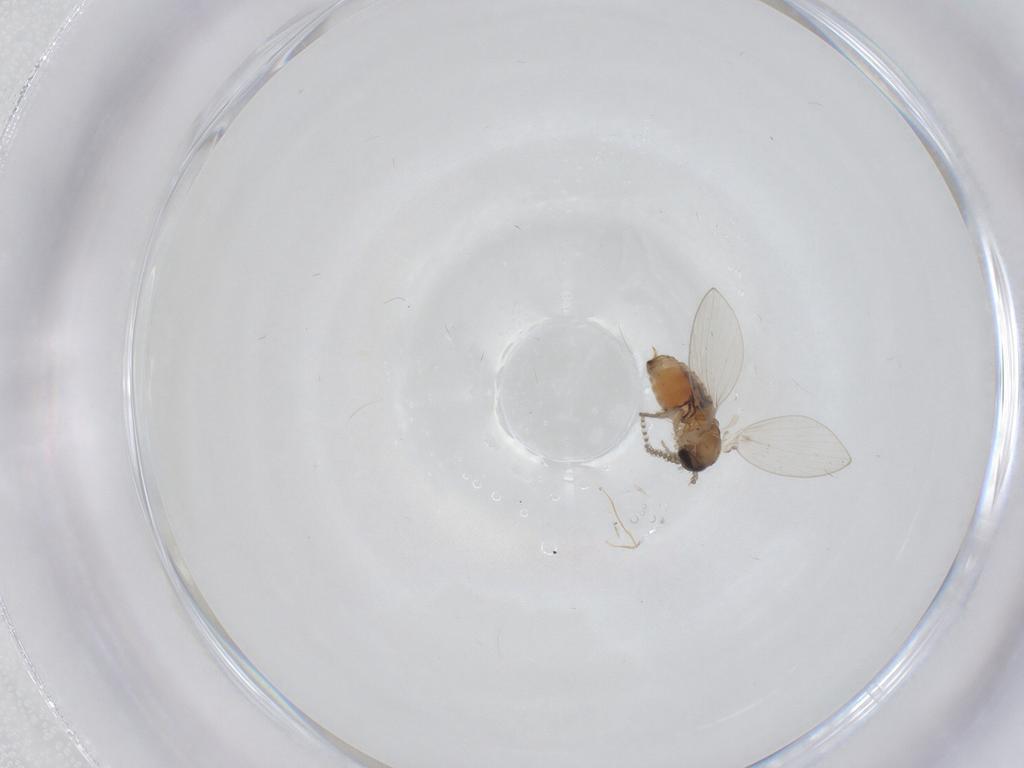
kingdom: Animalia
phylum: Arthropoda
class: Insecta
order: Diptera
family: Psychodidae
